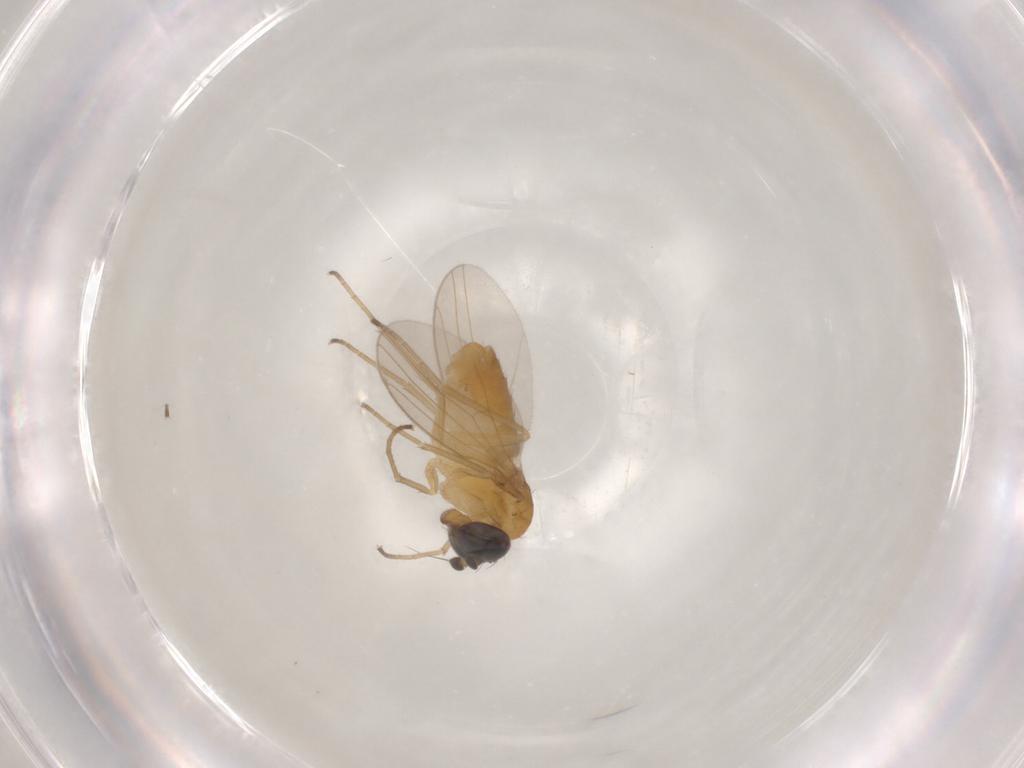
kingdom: Animalia
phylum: Arthropoda
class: Insecta
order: Diptera
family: Dolichopodidae
